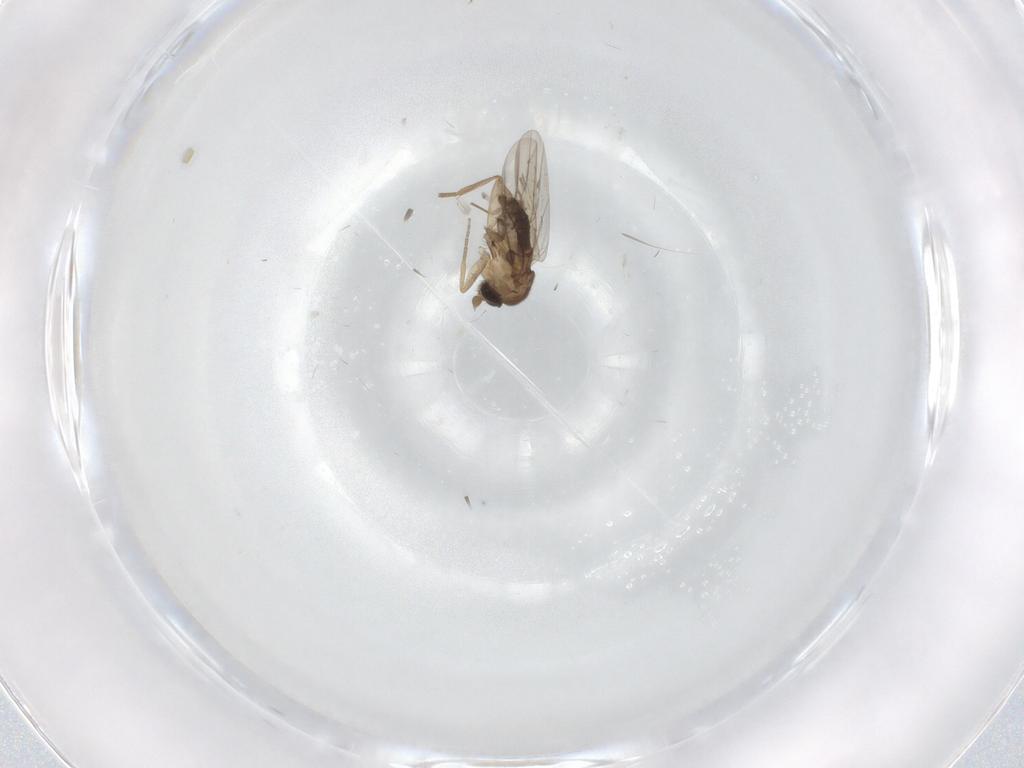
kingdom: Animalia
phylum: Arthropoda
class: Insecta
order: Diptera
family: Cecidomyiidae
